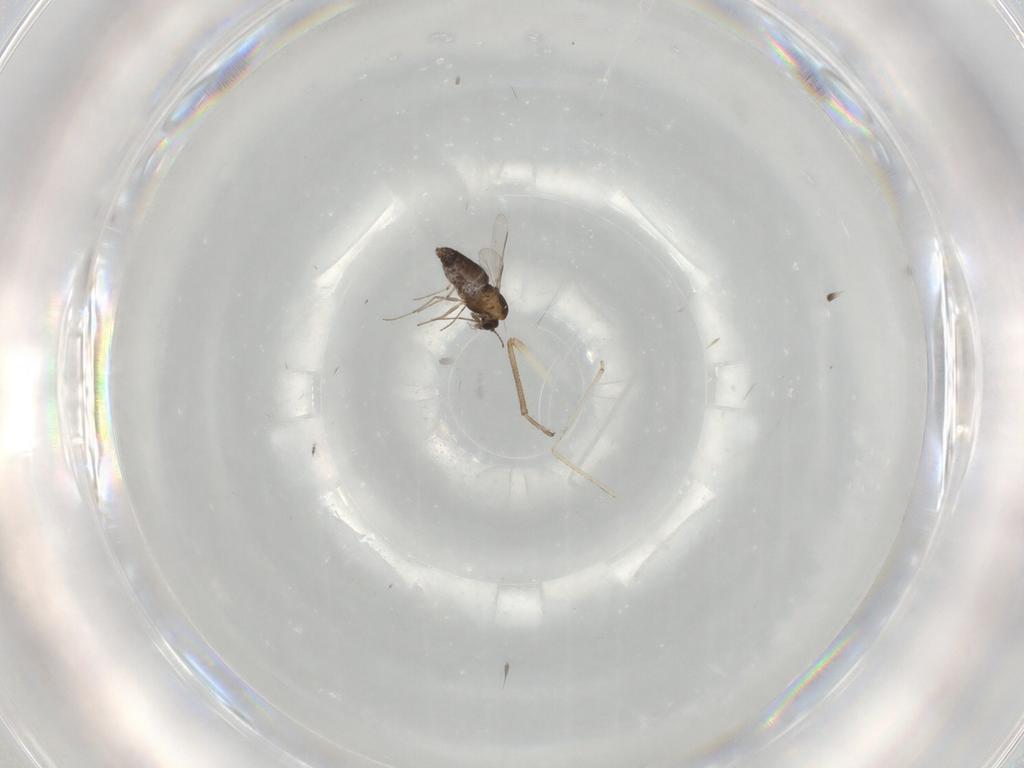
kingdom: Animalia
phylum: Arthropoda
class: Insecta
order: Diptera
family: Chironomidae
